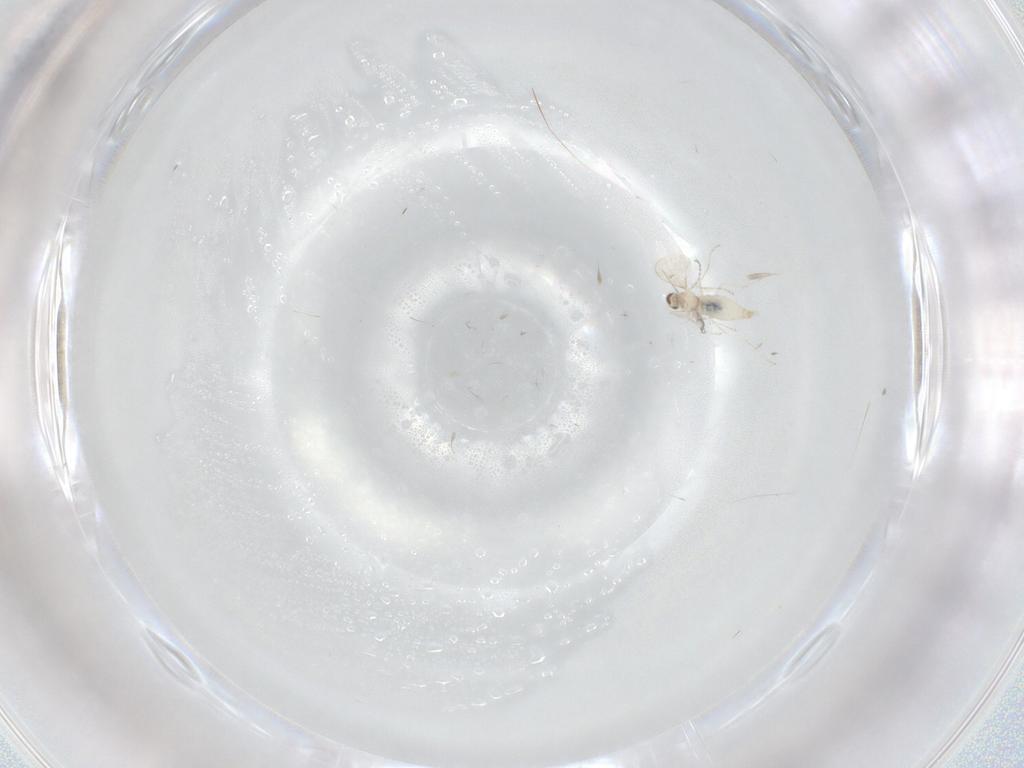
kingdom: Animalia
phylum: Arthropoda
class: Insecta
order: Diptera
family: Cecidomyiidae
